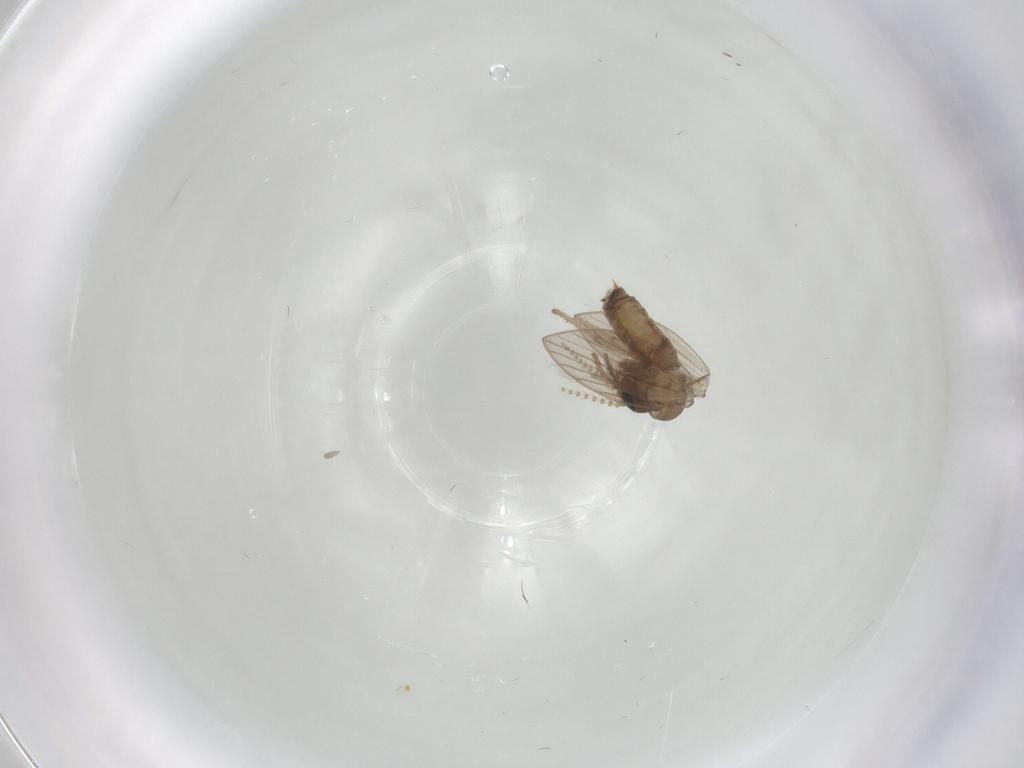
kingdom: Animalia
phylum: Arthropoda
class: Insecta
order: Diptera
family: Psychodidae
